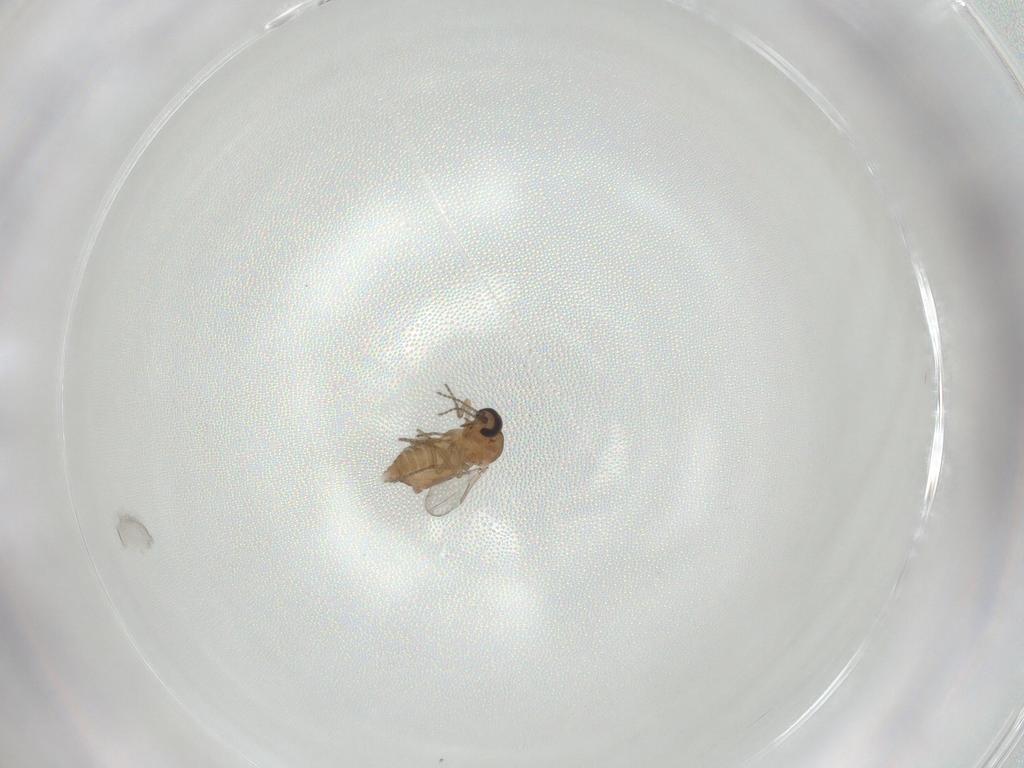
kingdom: Animalia
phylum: Arthropoda
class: Insecta
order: Diptera
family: Ceratopogonidae
